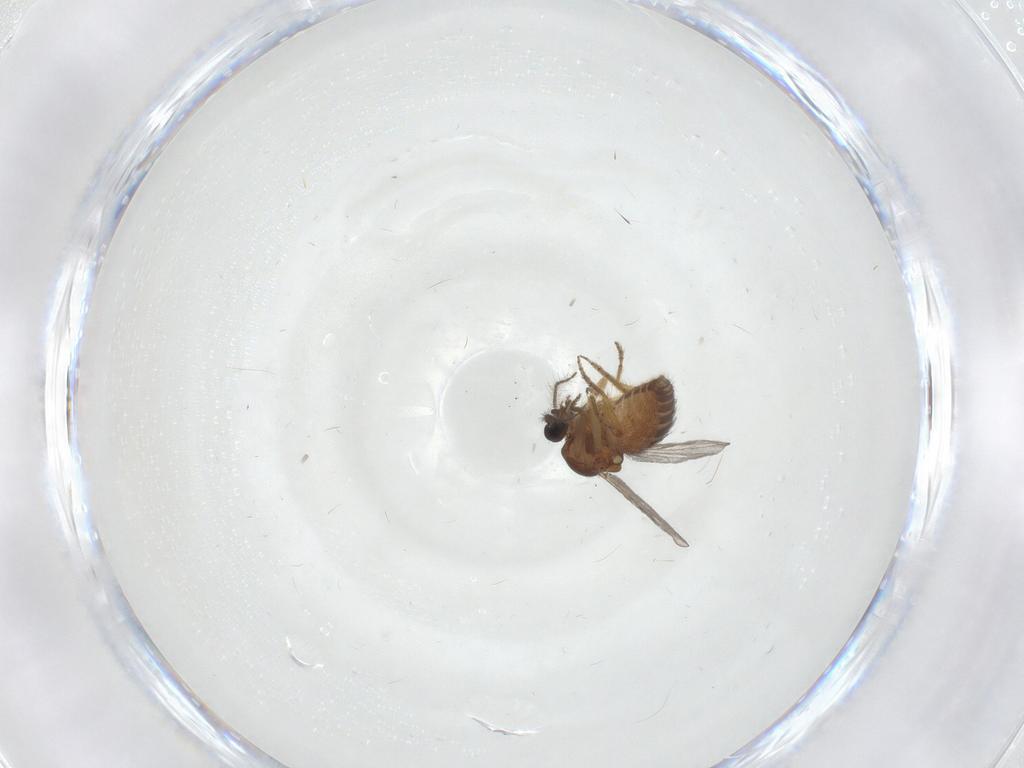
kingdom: Animalia
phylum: Arthropoda
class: Insecta
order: Diptera
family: Ceratopogonidae
